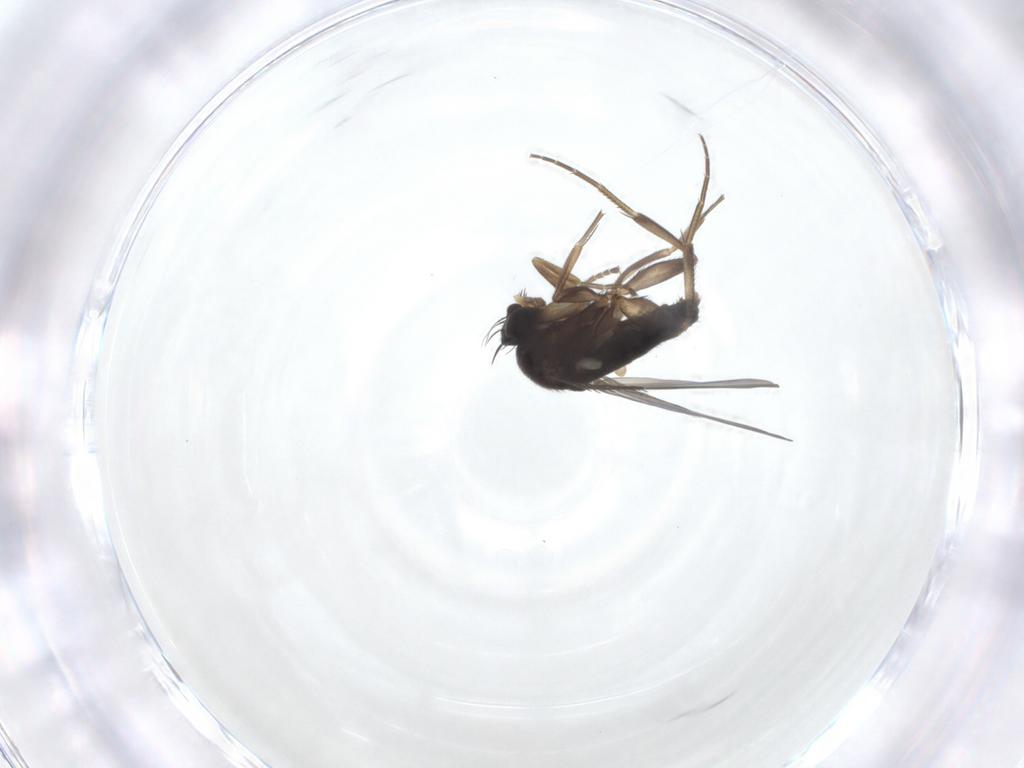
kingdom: Animalia
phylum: Arthropoda
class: Insecta
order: Diptera
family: Phoridae
